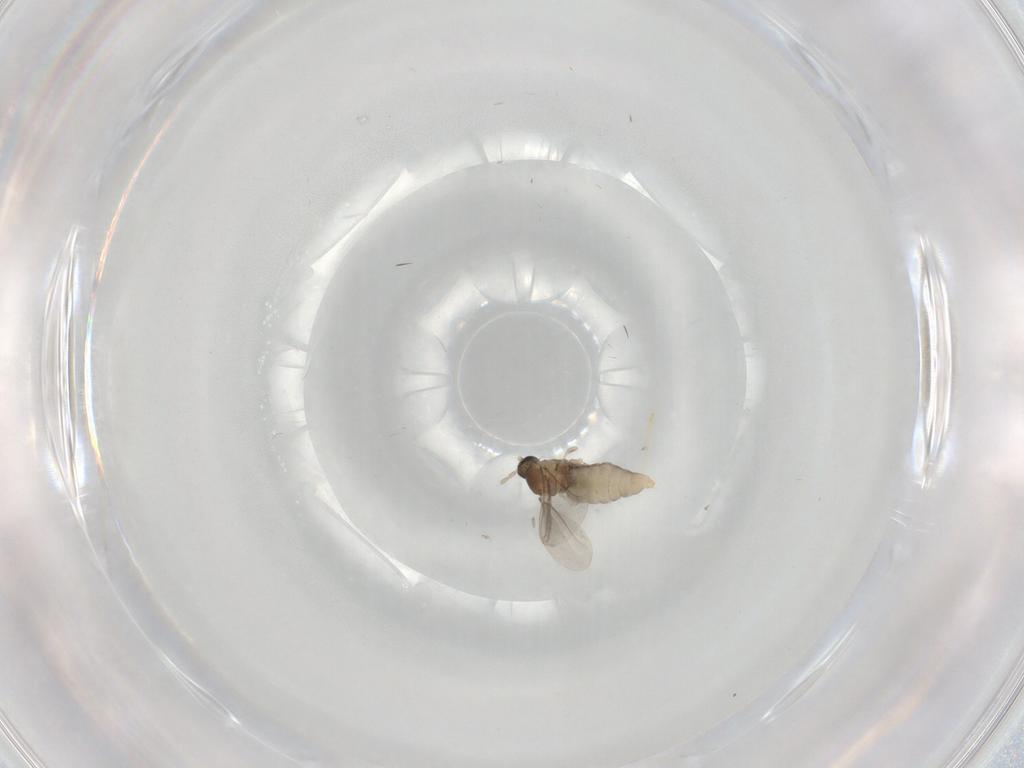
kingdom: Animalia
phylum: Arthropoda
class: Insecta
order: Diptera
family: Cecidomyiidae
